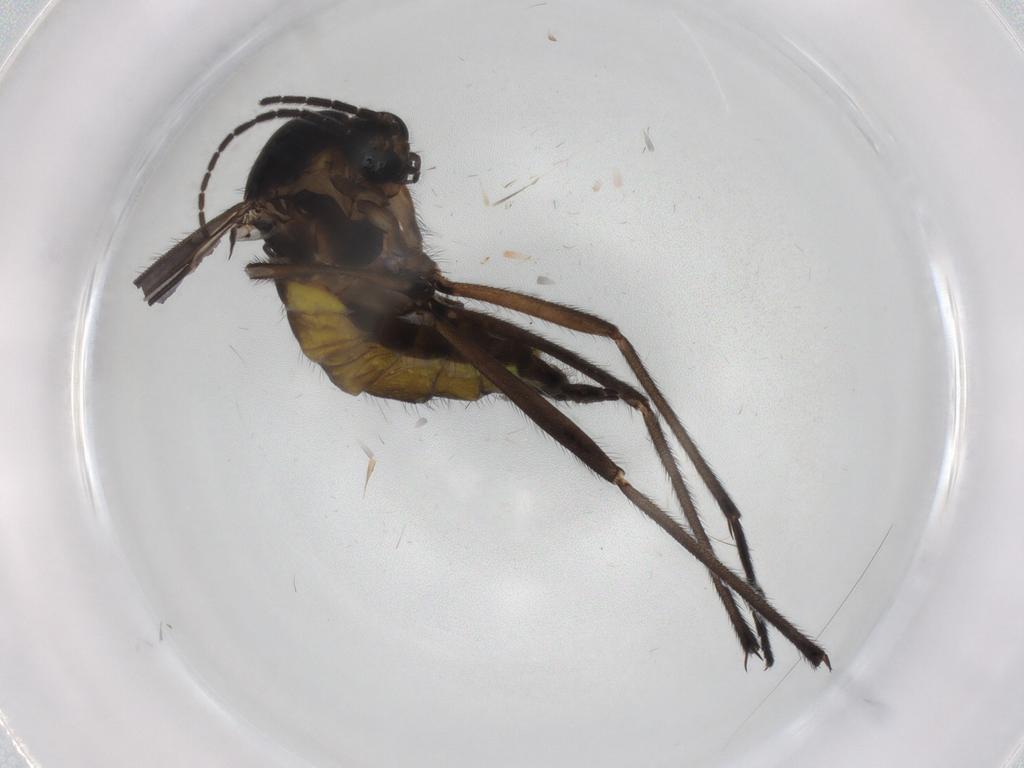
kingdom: Animalia
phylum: Arthropoda
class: Insecta
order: Diptera
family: Sciaridae
